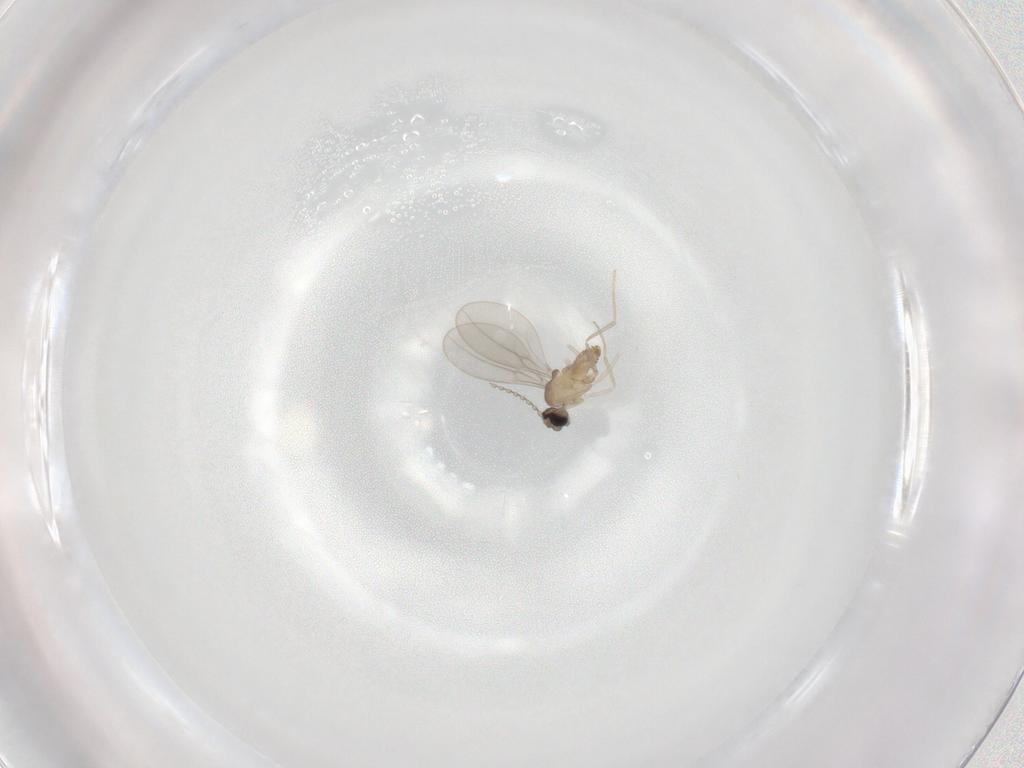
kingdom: Animalia
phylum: Arthropoda
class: Insecta
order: Diptera
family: Cecidomyiidae
